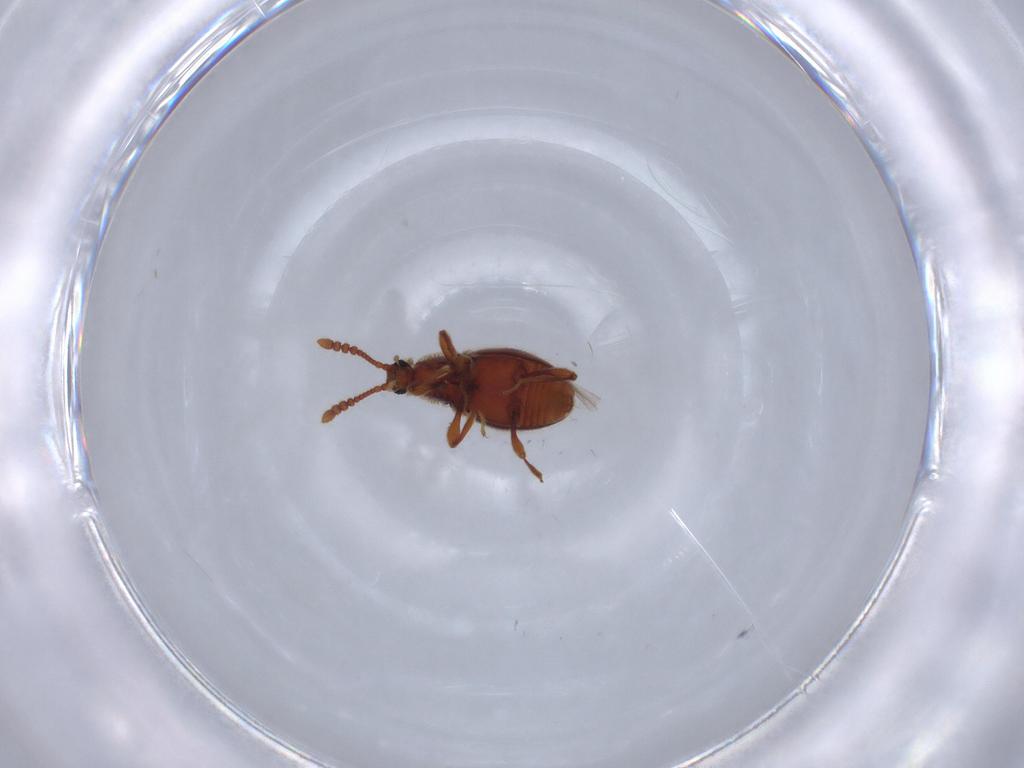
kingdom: Animalia
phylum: Arthropoda
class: Insecta
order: Coleoptera
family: Staphylinidae
